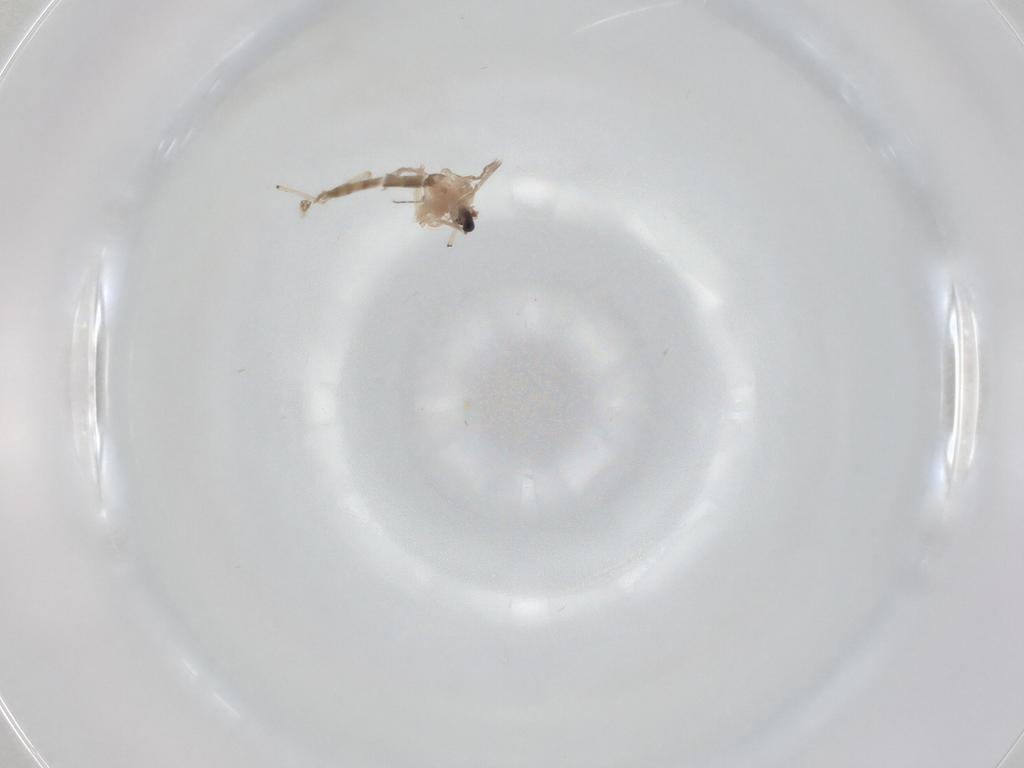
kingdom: Animalia
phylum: Arthropoda
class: Insecta
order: Diptera
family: Ceratopogonidae
